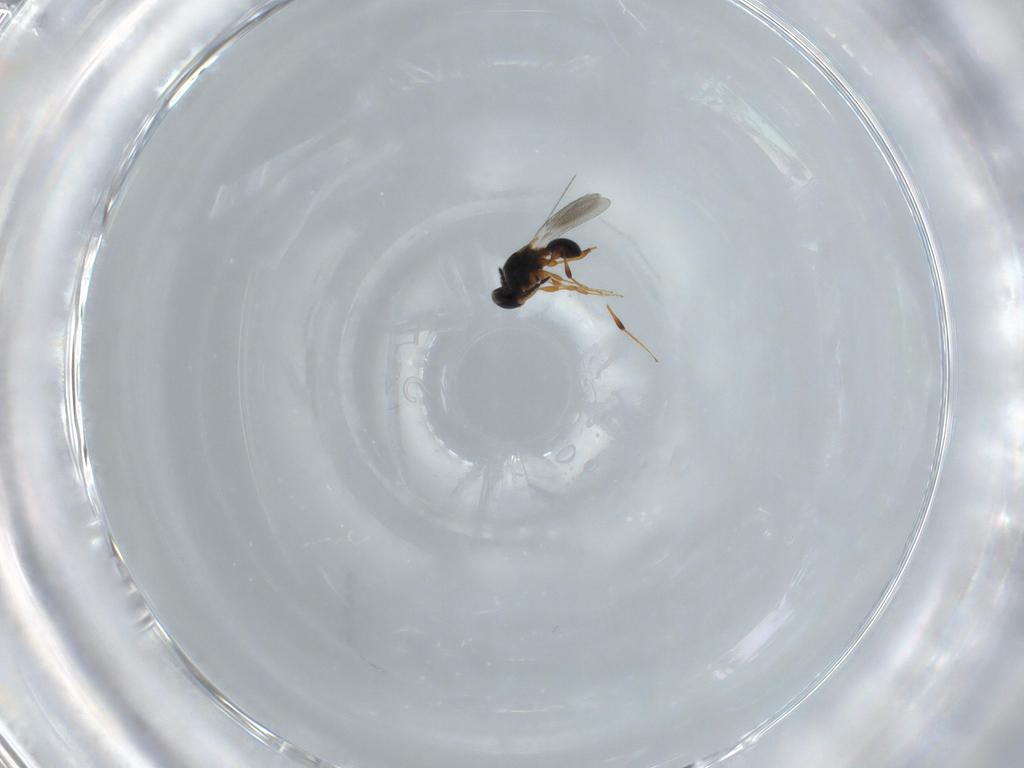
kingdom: Animalia
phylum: Arthropoda
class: Insecta
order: Hymenoptera
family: Platygastridae
